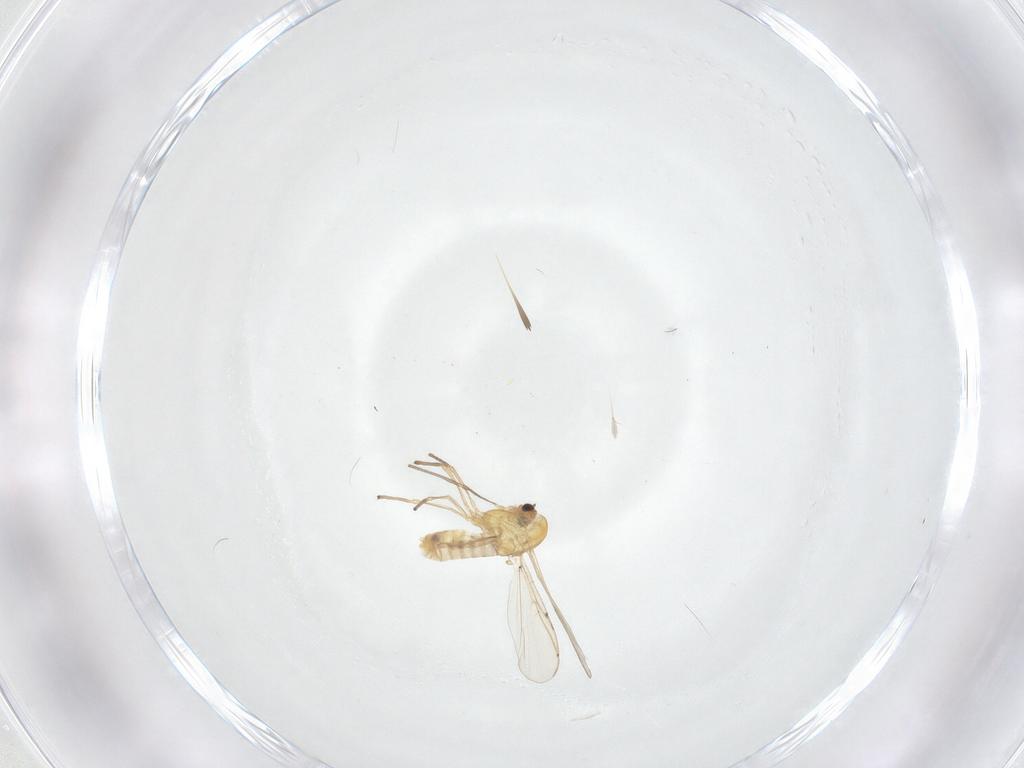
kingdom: Animalia
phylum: Arthropoda
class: Insecta
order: Diptera
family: Chironomidae
